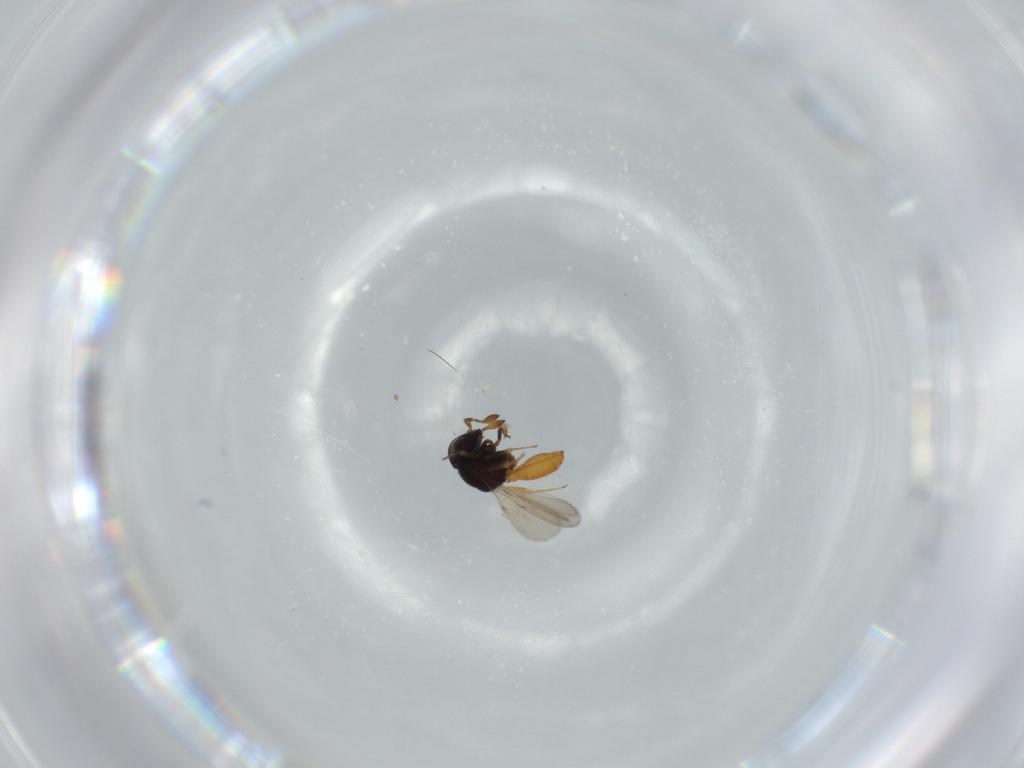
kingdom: Animalia
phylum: Arthropoda
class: Insecta
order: Hymenoptera
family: Scelionidae
